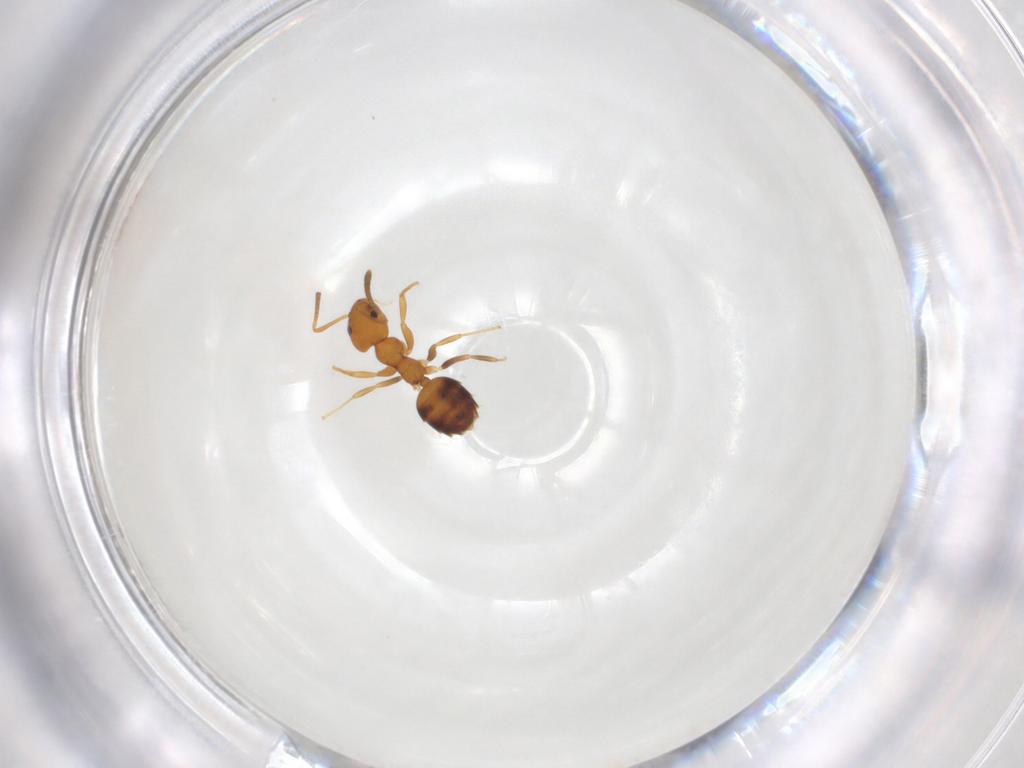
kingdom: Animalia
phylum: Arthropoda
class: Insecta
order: Hymenoptera
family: Formicidae
